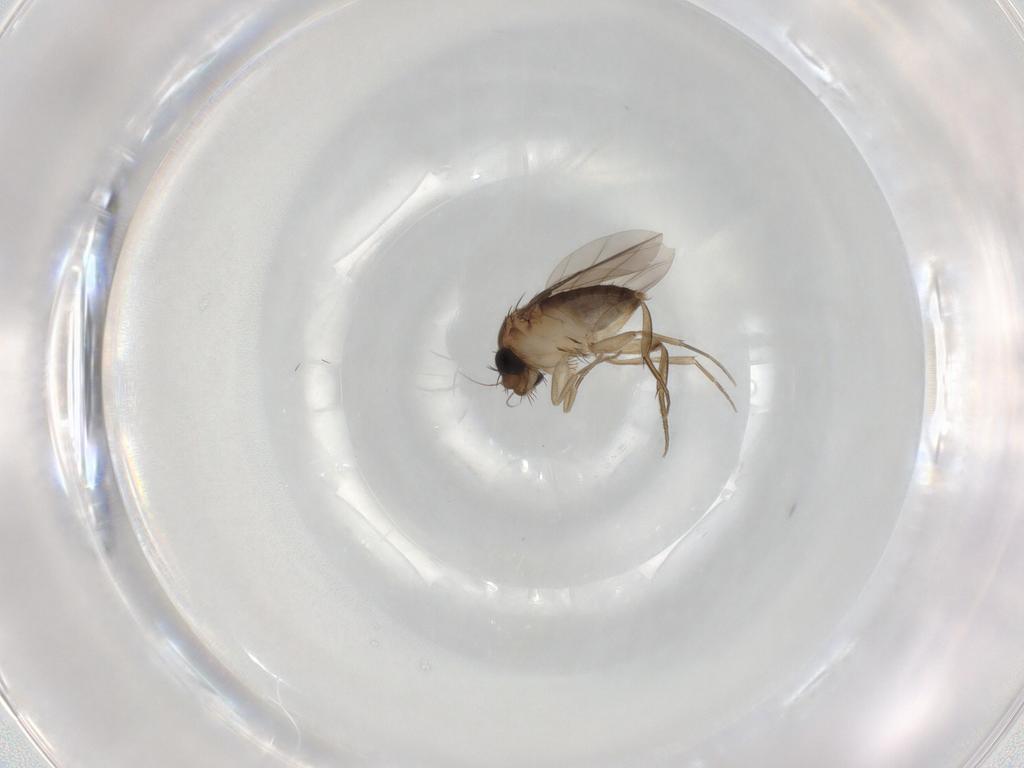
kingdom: Animalia
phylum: Arthropoda
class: Insecta
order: Diptera
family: Phoridae
